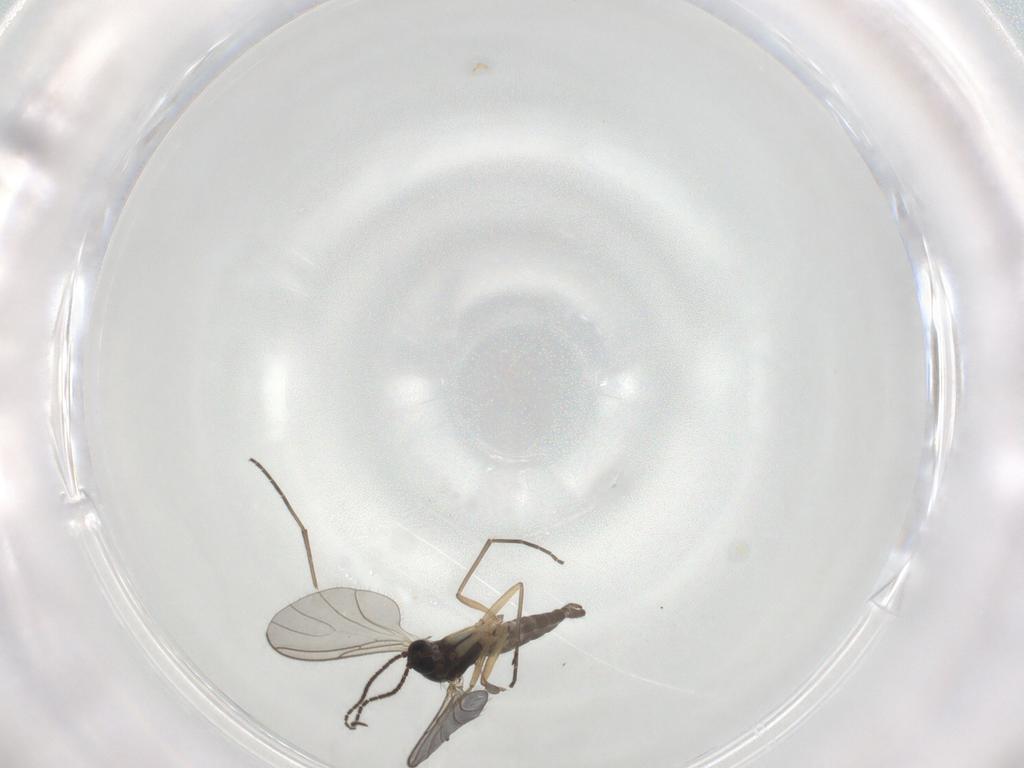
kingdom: Animalia
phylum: Arthropoda
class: Insecta
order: Diptera
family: Sciaridae
